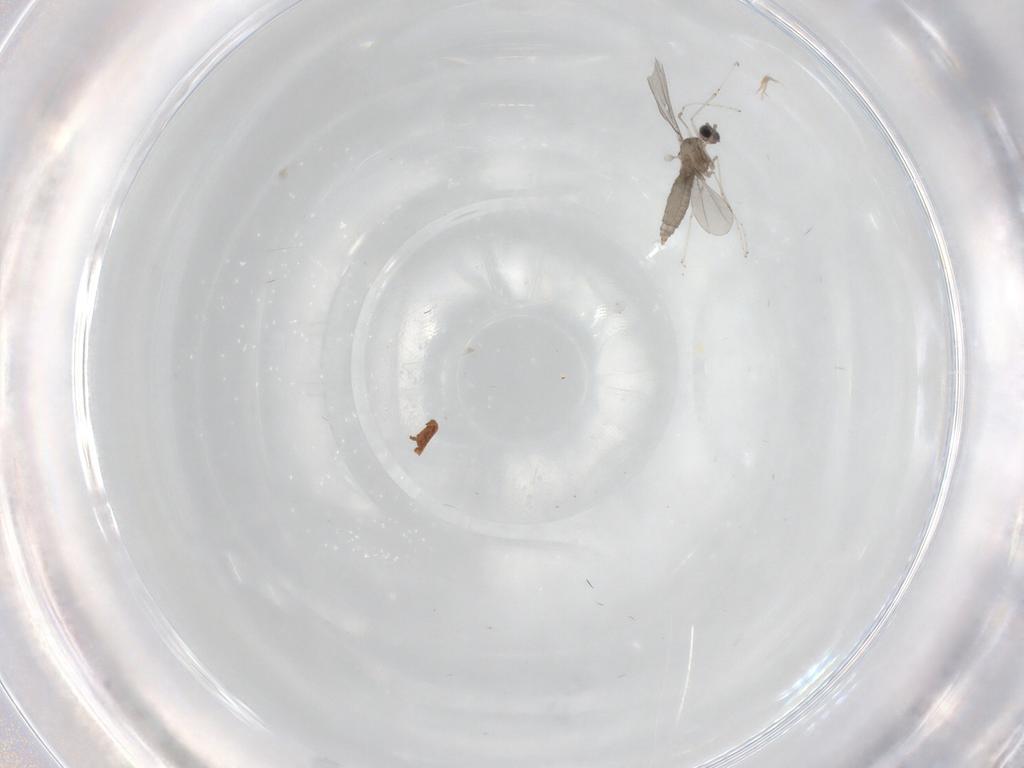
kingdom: Animalia
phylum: Arthropoda
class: Insecta
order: Diptera
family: Cecidomyiidae
